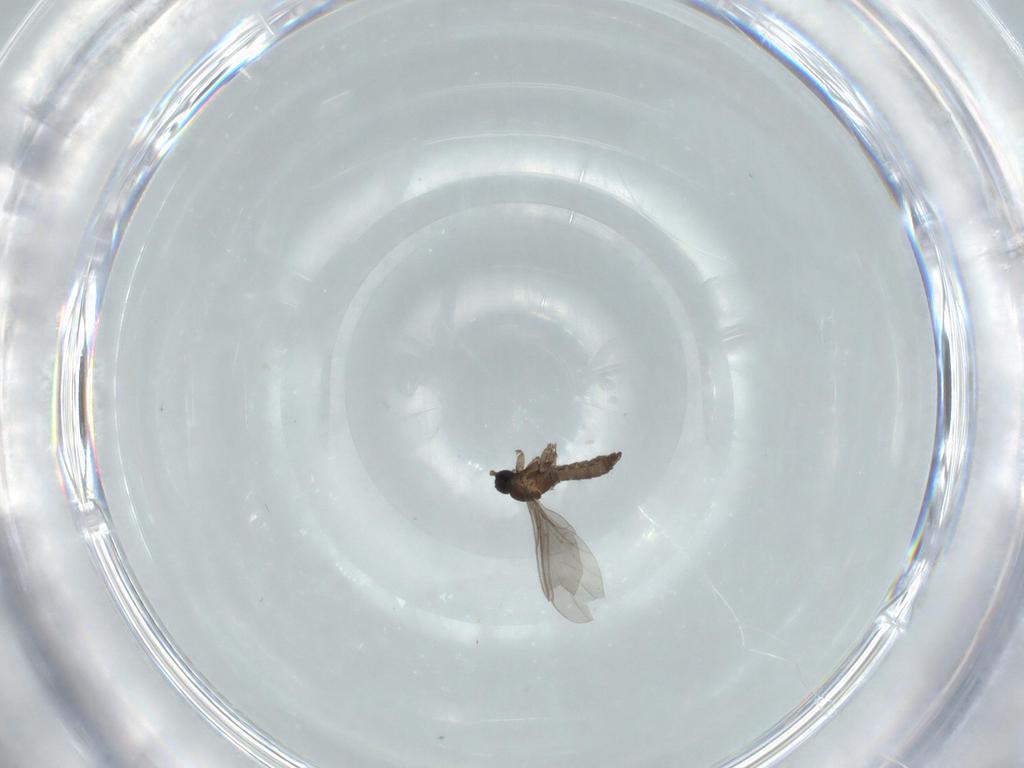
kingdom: Animalia
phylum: Arthropoda
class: Insecta
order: Diptera
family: Sciaridae
